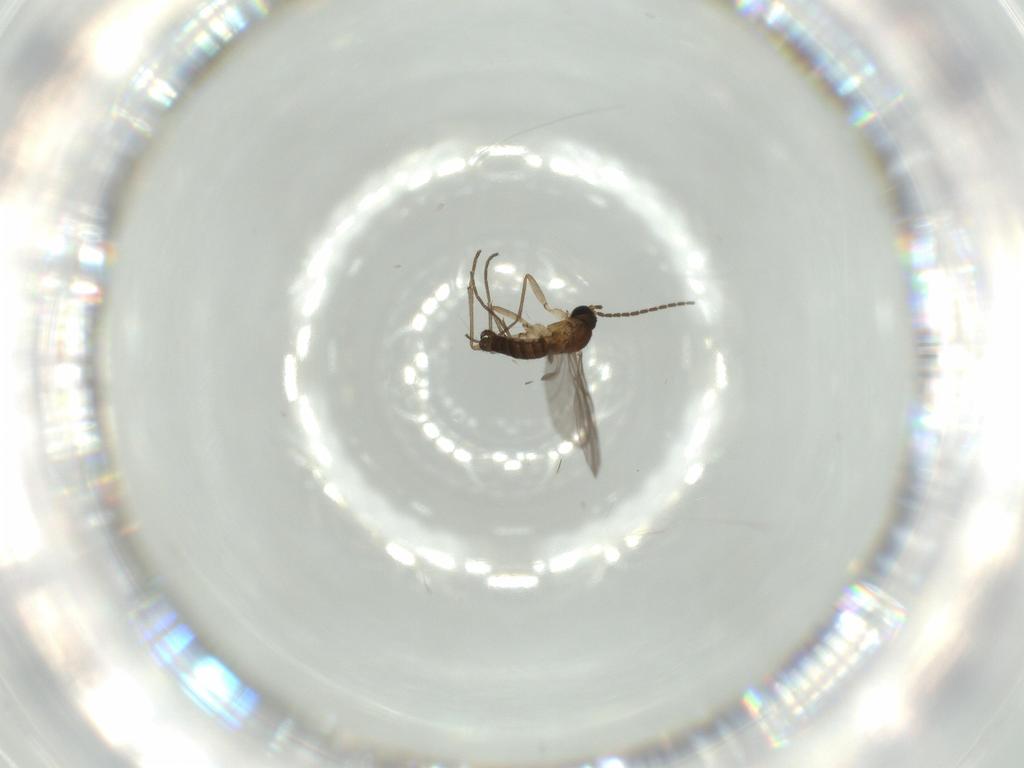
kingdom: Animalia
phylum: Arthropoda
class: Insecta
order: Diptera
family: Sciaridae
